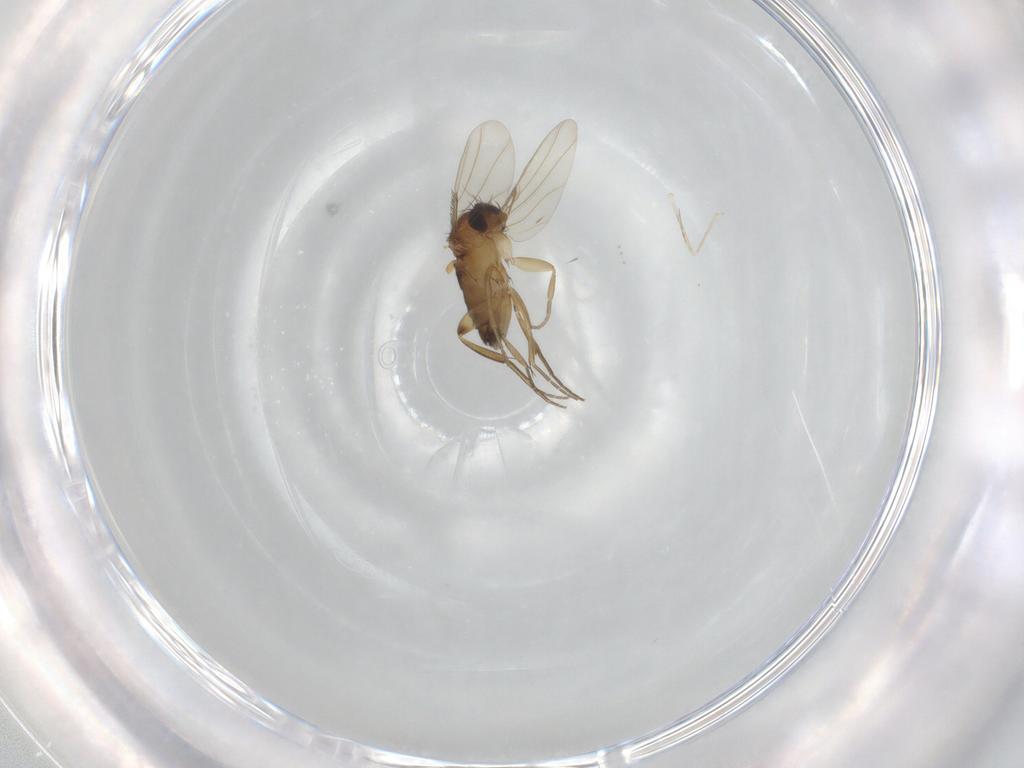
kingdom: Animalia
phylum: Arthropoda
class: Insecta
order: Diptera
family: Phoridae
